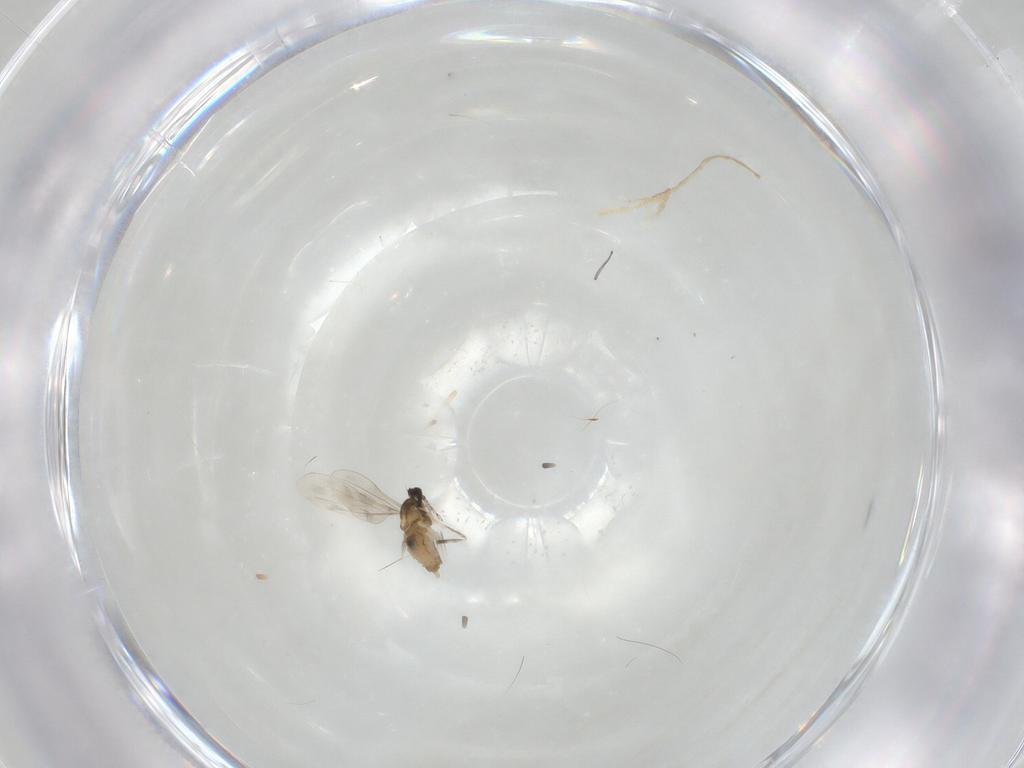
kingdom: Animalia
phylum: Arthropoda
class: Insecta
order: Diptera
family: Cecidomyiidae
